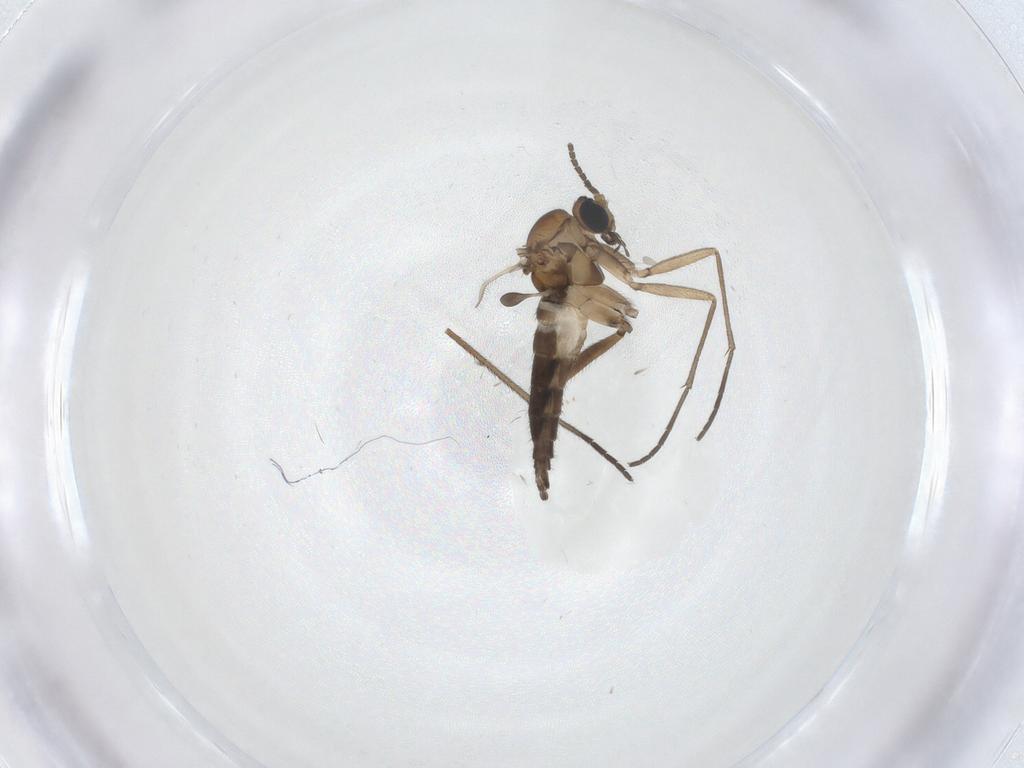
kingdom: Animalia
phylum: Arthropoda
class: Insecta
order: Diptera
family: Sciaridae
